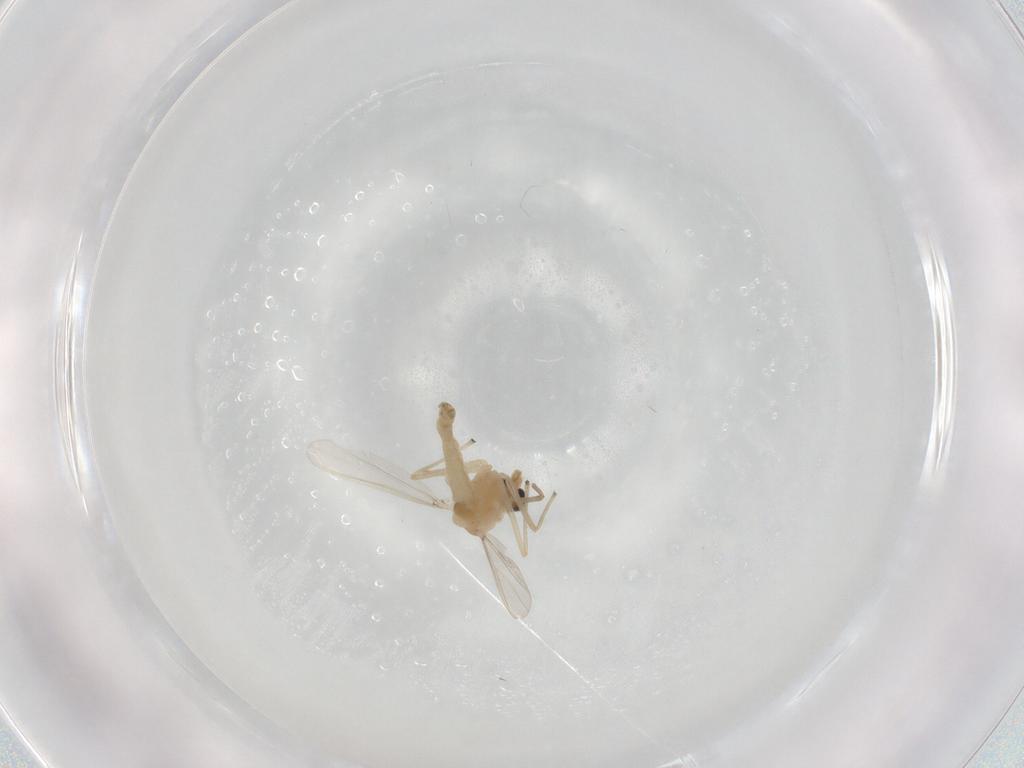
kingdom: Animalia
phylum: Arthropoda
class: Insecta
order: Diptera
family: Chironomidae
